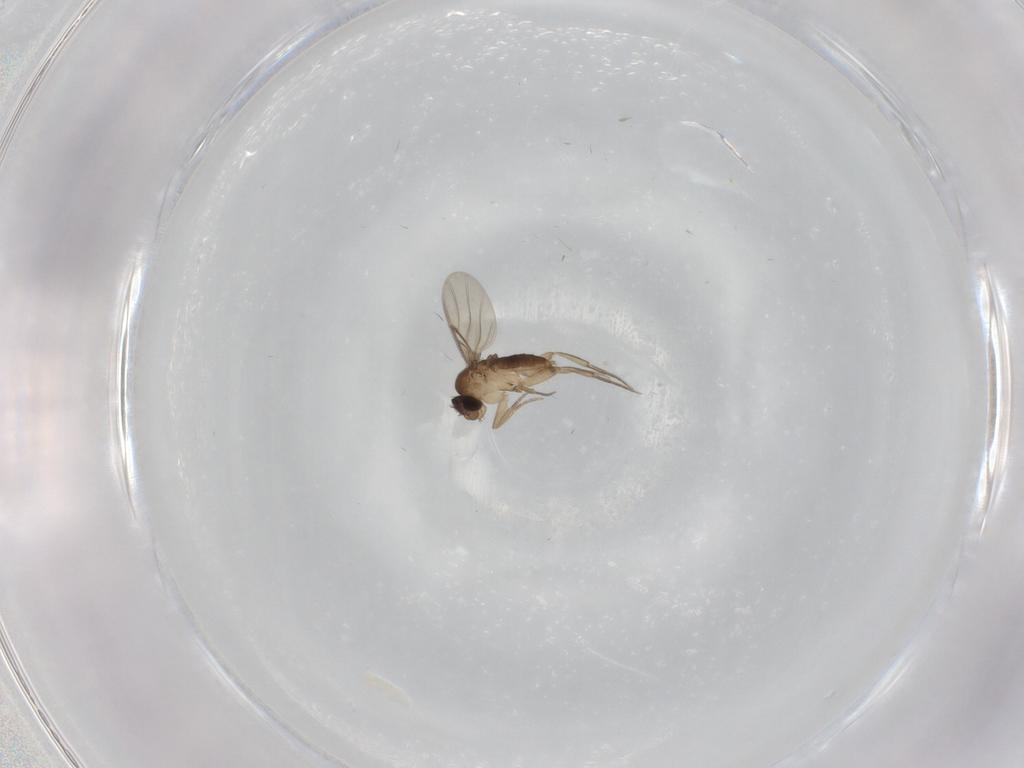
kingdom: Animalia
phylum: Arthropoda
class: Insecta
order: Diptera
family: Phoridae
